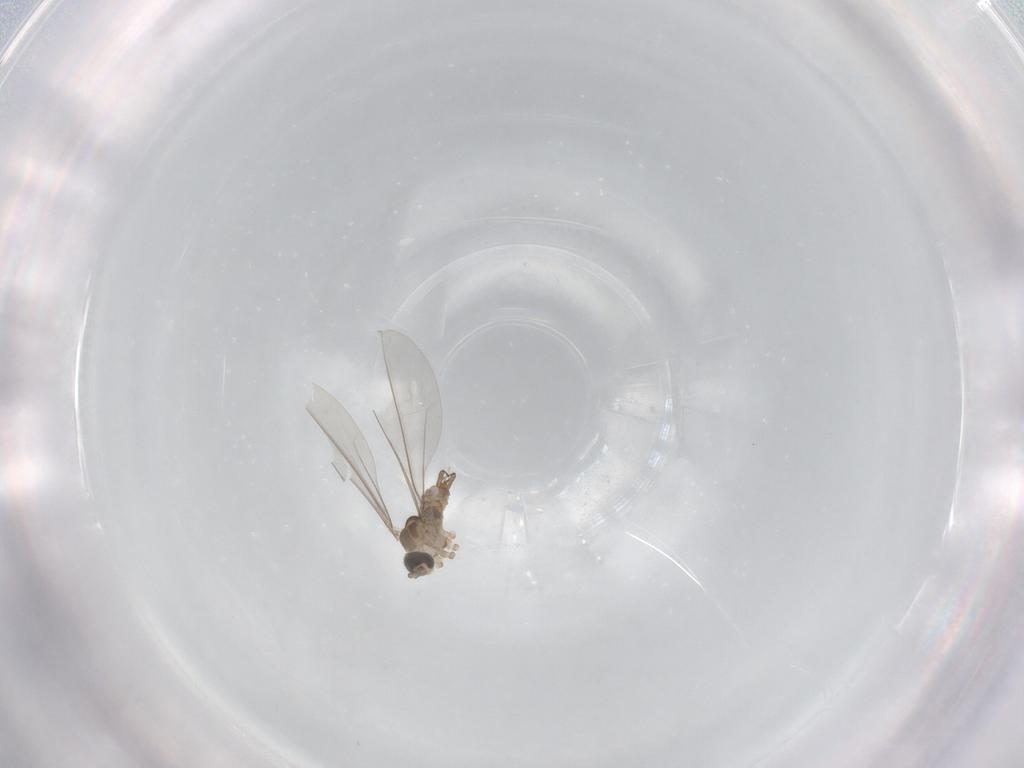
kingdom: Animalia
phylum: Arthropoda
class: Insecta
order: Diptera
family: Cecidomyiidae
